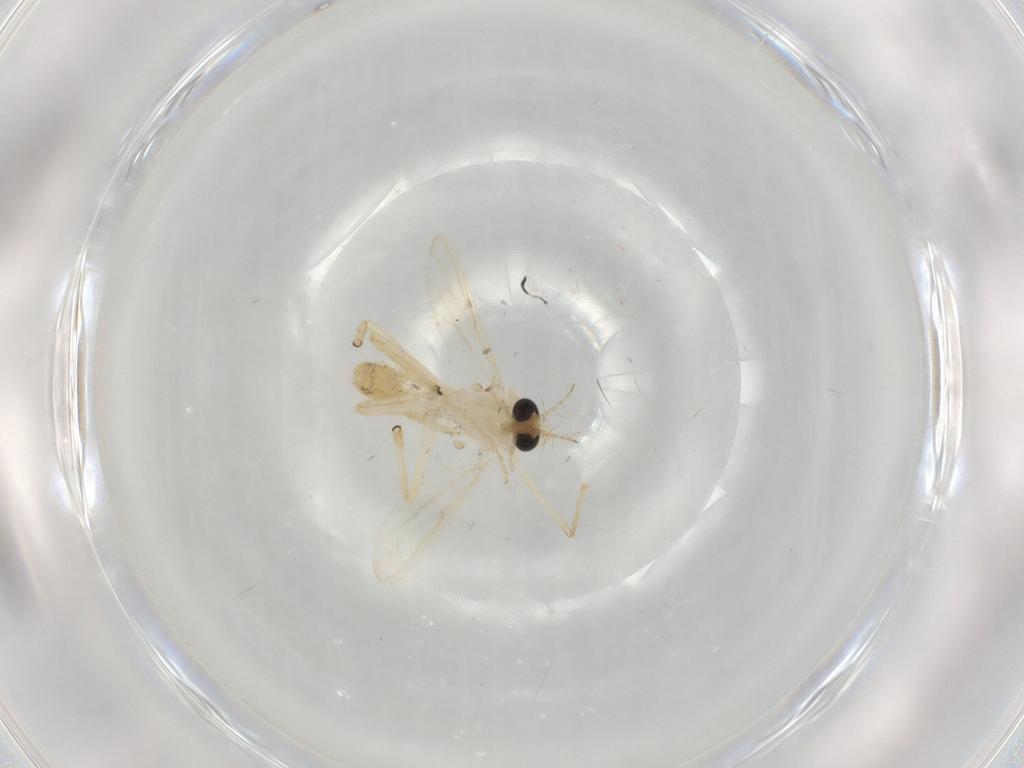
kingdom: Animalia
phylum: Arthropoda
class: Insecta
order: Diptera
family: Chironomidae
